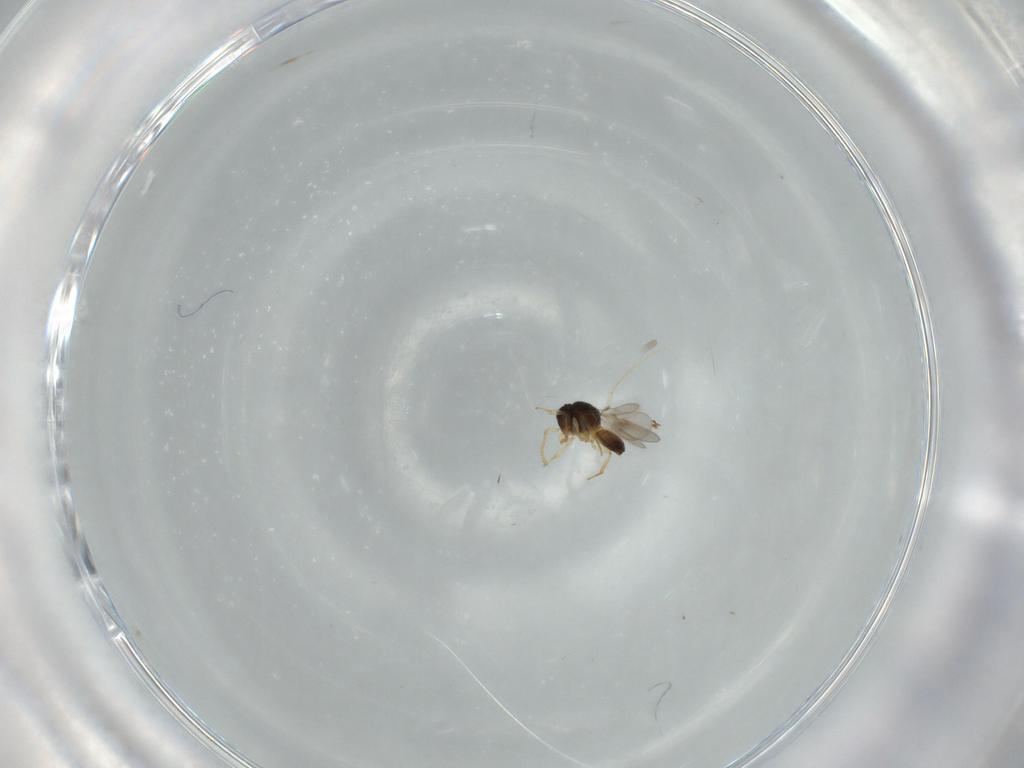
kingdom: Animalia
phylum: Arthropoda
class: Insecta
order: Hymenoptera
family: Scelionidae
